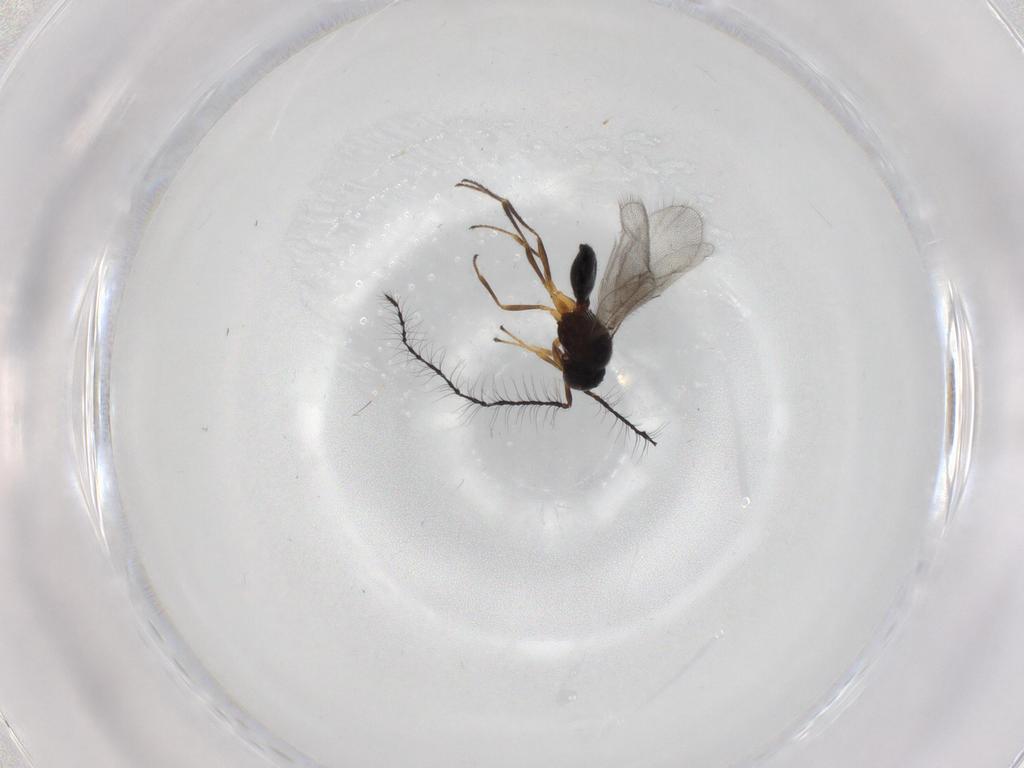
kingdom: Animalia
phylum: Arthropoda
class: Insecta
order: Hymenoptera
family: Scelionidae
